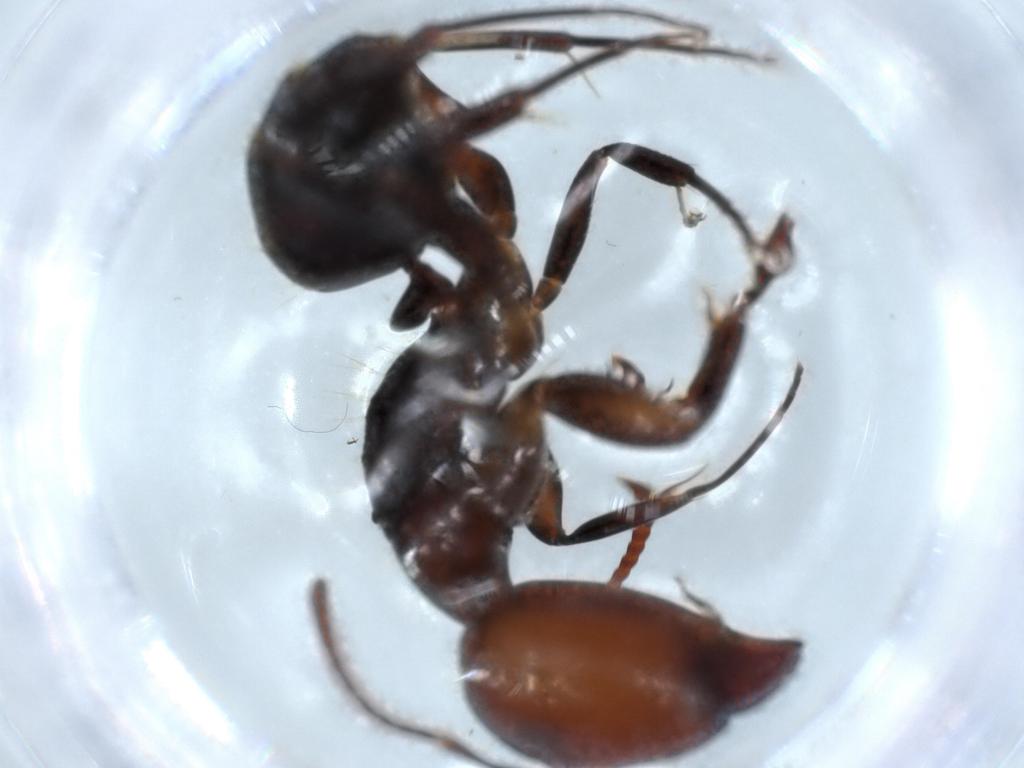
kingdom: Animalia
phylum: Arthropoda
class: Insecta
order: Hymenoptera
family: Formicidae
